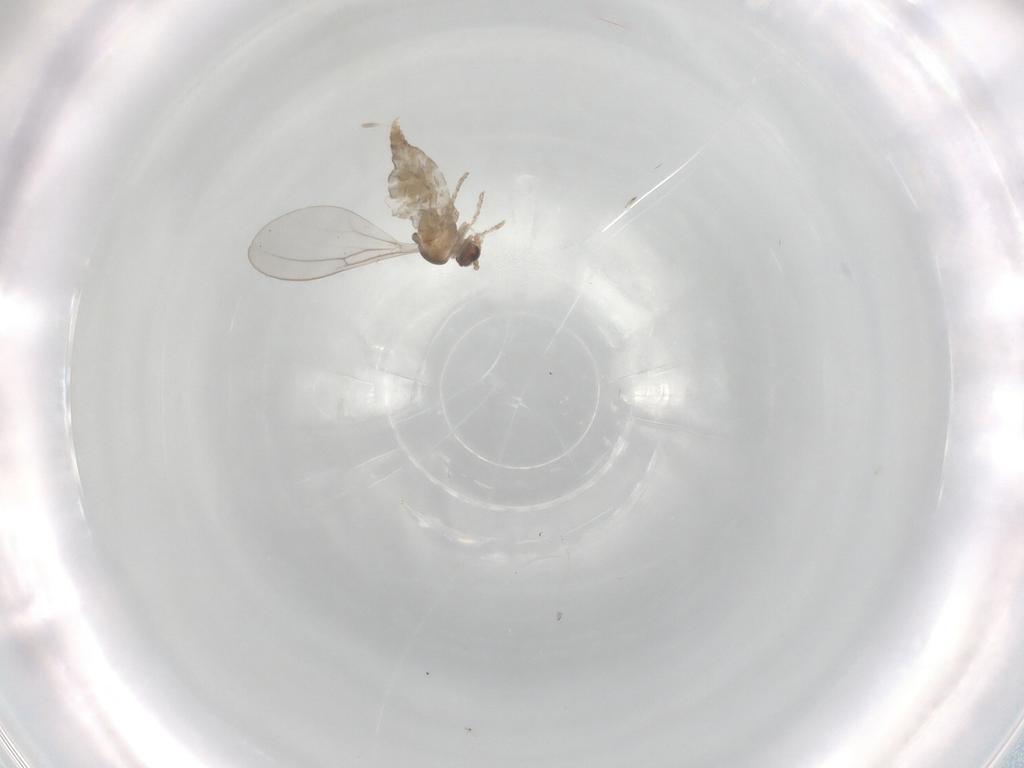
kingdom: Animalia
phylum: Arthropoda
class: Insecta
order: Diptera
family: Cecidomyiidae
